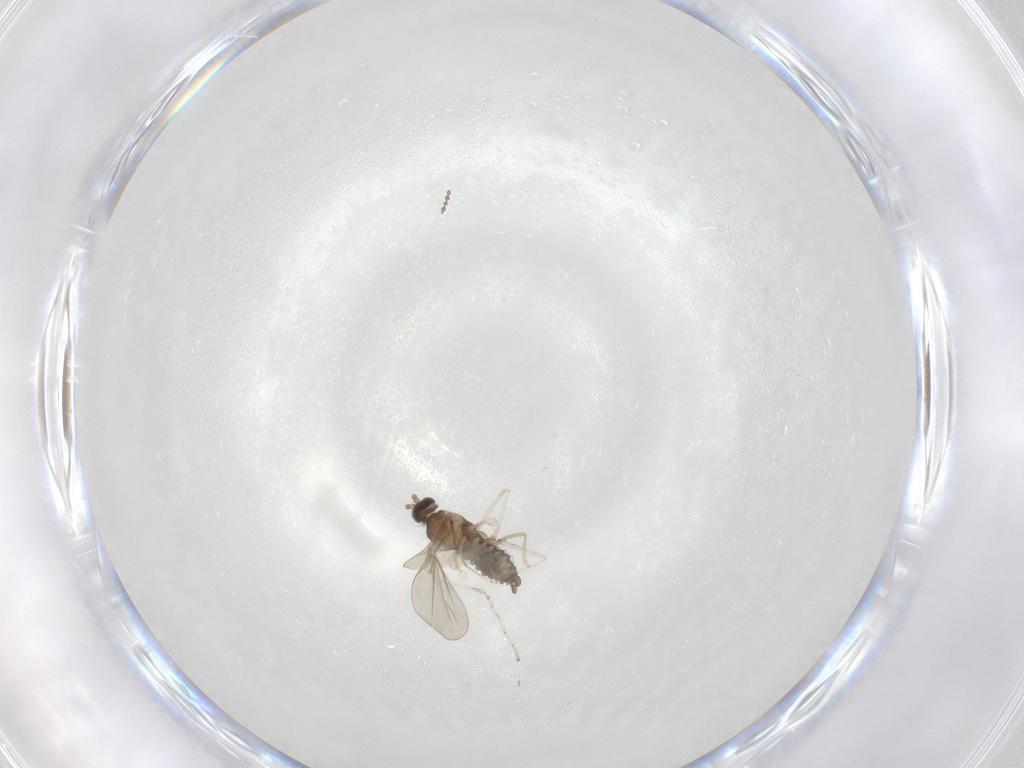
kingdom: Animalia
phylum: Arthropoda
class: Insecta
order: Diptera
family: Cecidomyiidae
